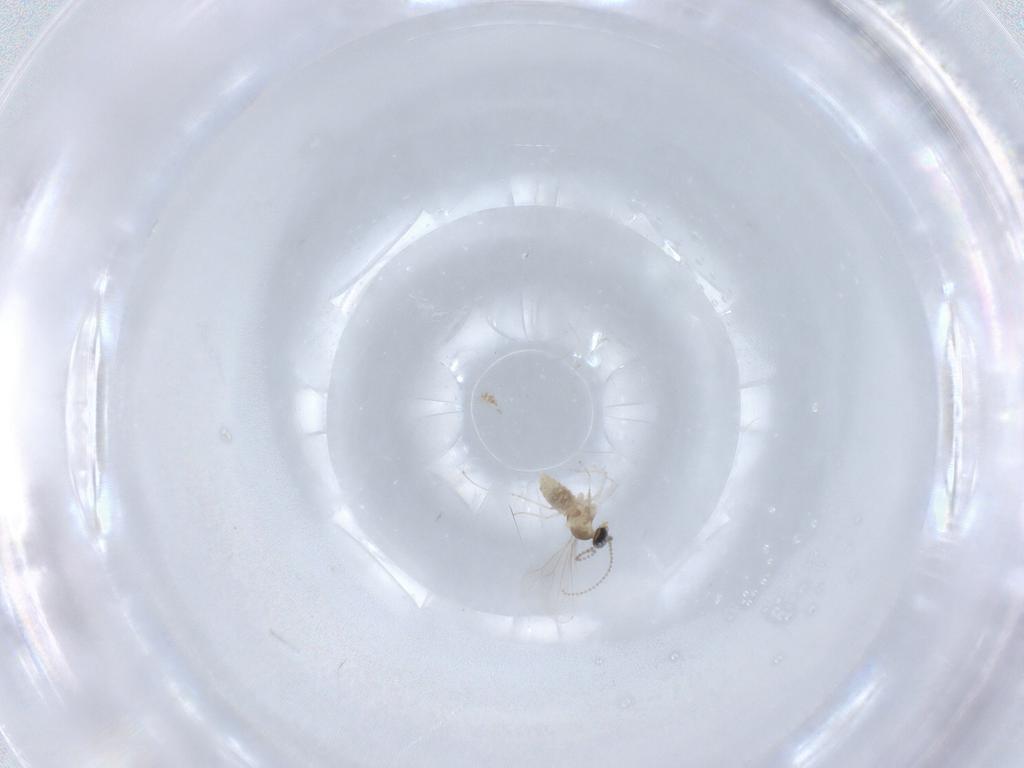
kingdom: Animalia
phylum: Arthropoda
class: Insecta
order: Diptera
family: Cecidomyiidae
